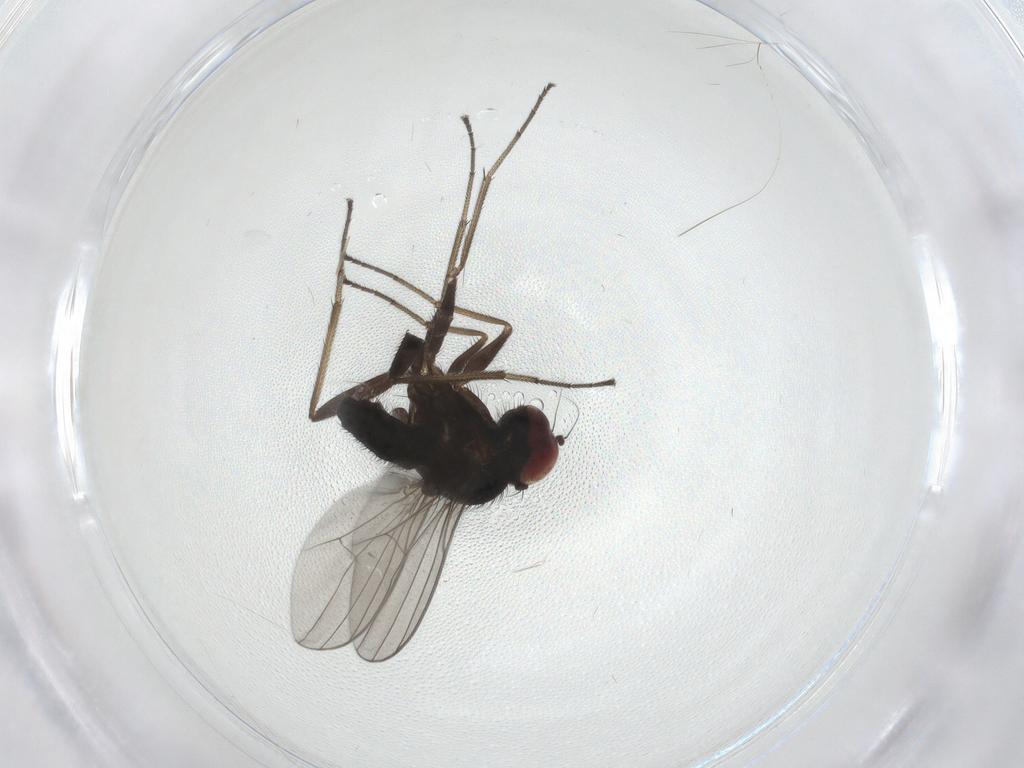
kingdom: Animalia
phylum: Arthropoda
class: Insecta
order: Diptera
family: Dolichopodidae
